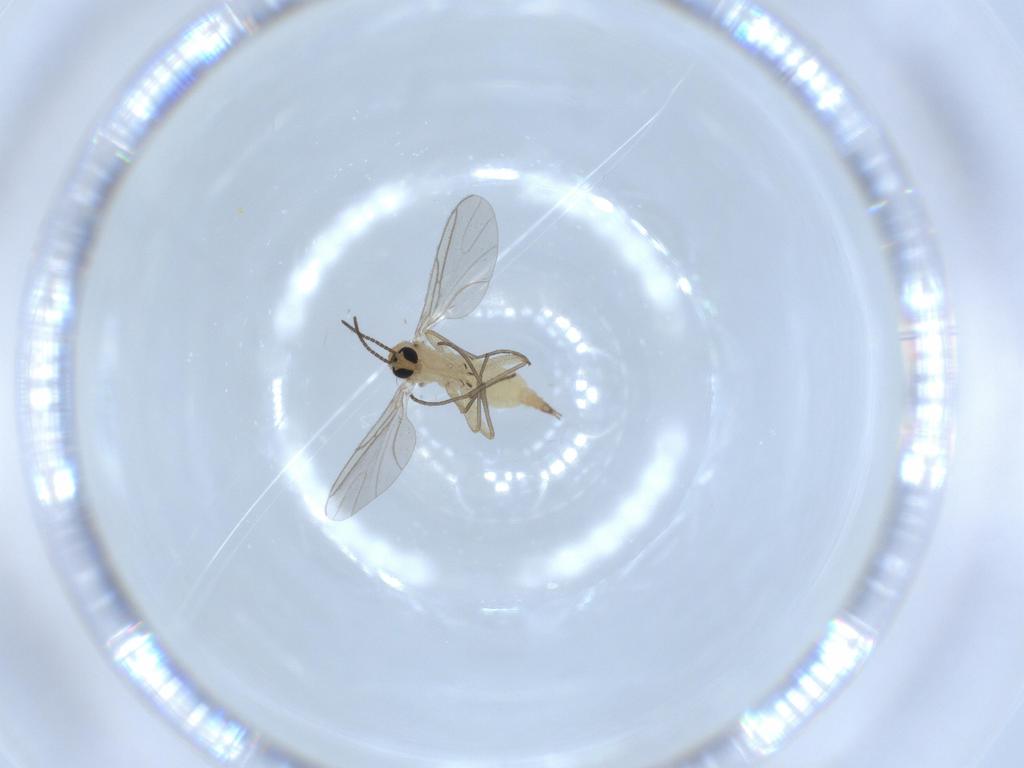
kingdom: Animalia
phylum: Arthropoda
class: Insecta
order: Diptera
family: Sciaridae
